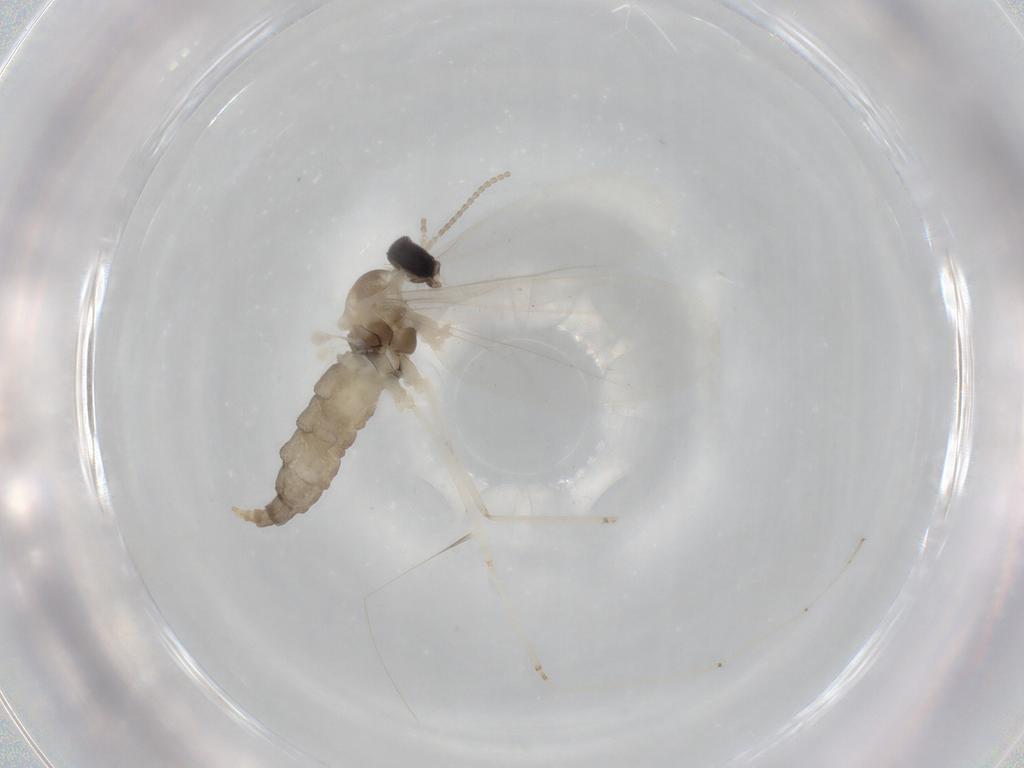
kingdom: Animalia
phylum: Arthropoda
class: Insecta
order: Diptera
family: Cecidomyiidae
